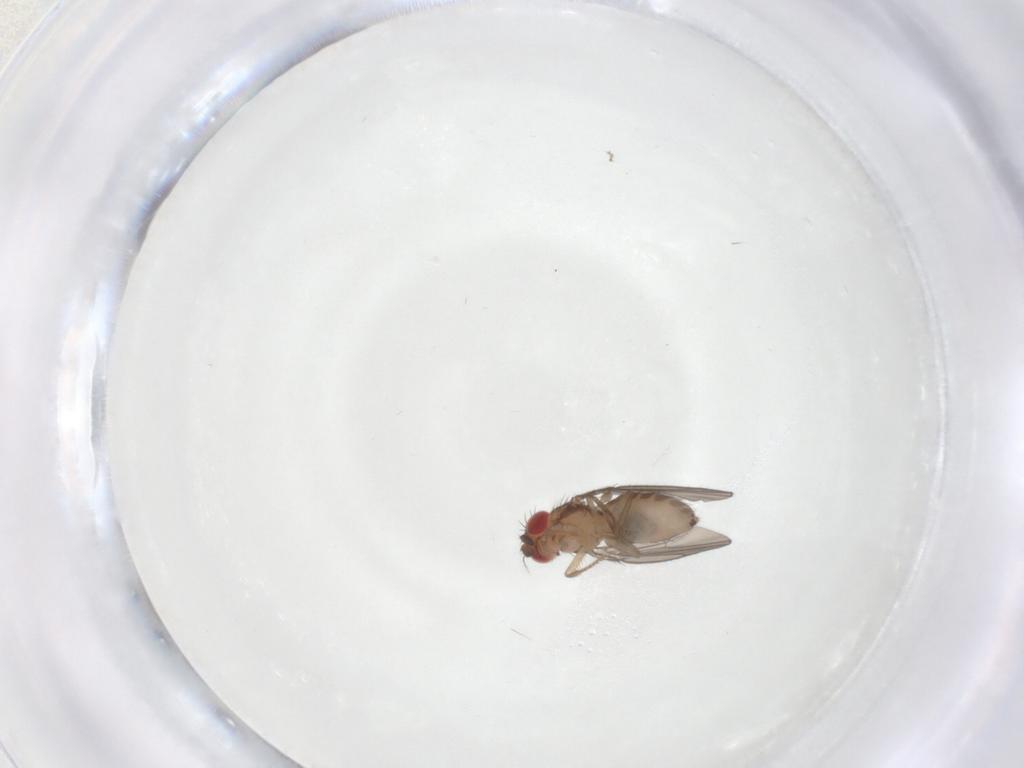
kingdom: Animalia
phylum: Arthropoda
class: Insecta
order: Diptera
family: Drosophilidae
